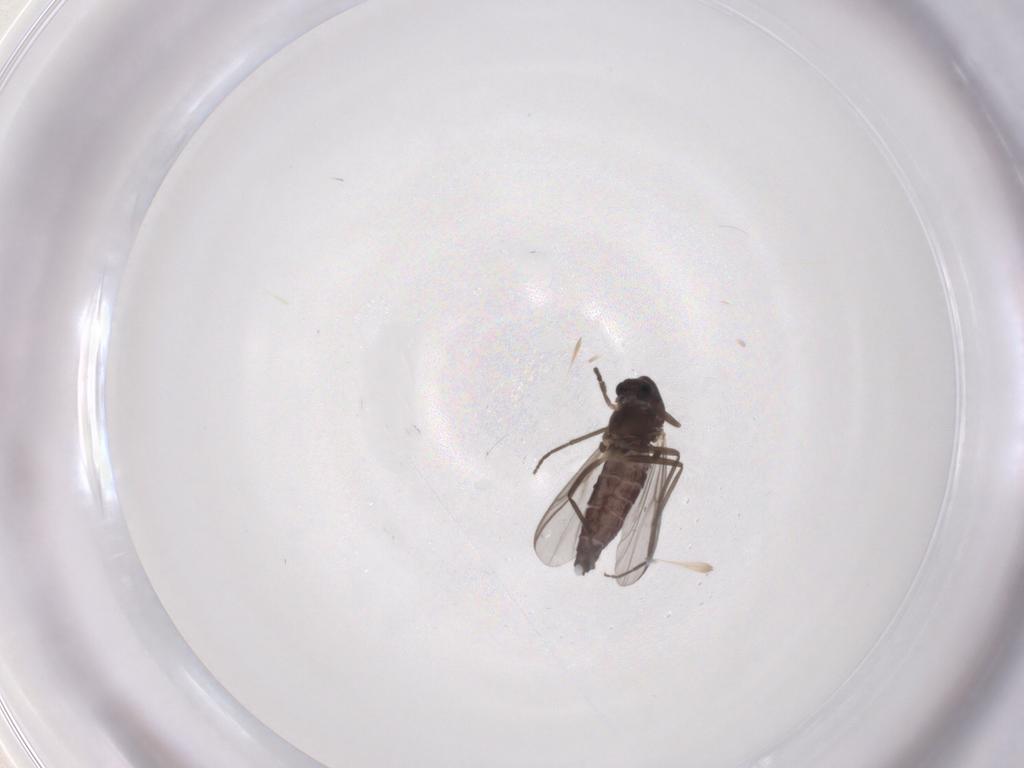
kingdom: Animalia
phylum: Arthropoda
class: Insecta
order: Diptera
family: Chironomidae
